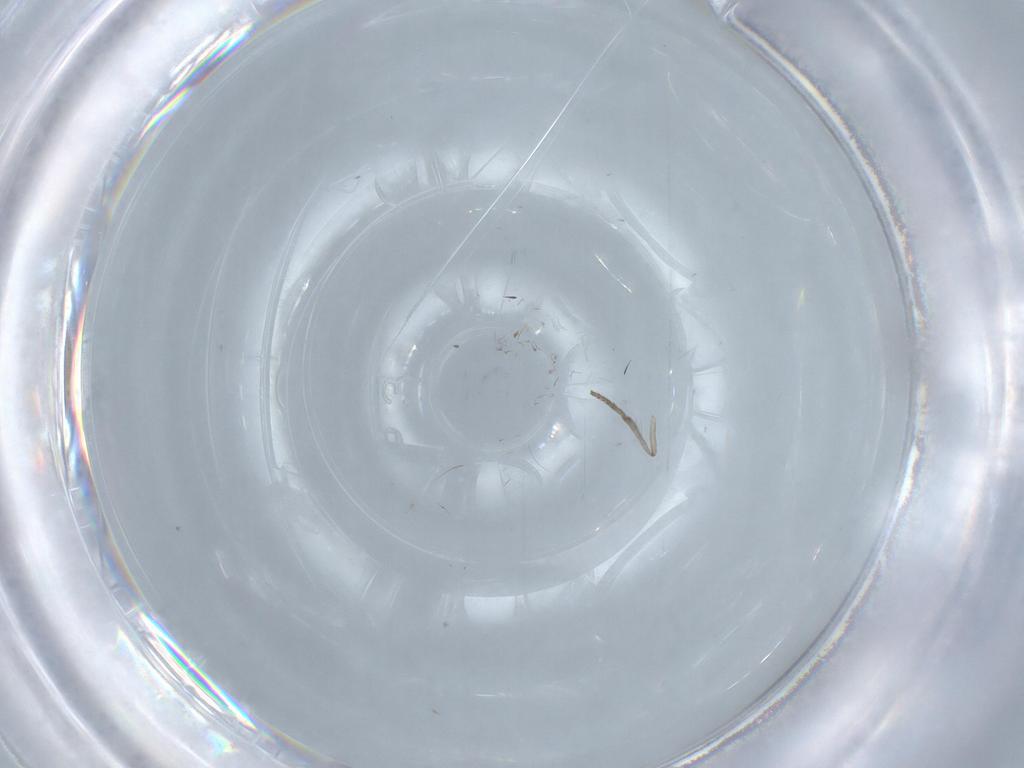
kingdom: Animalia
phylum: Arthropoda
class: Insecta
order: Diptera
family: Psychodidae
